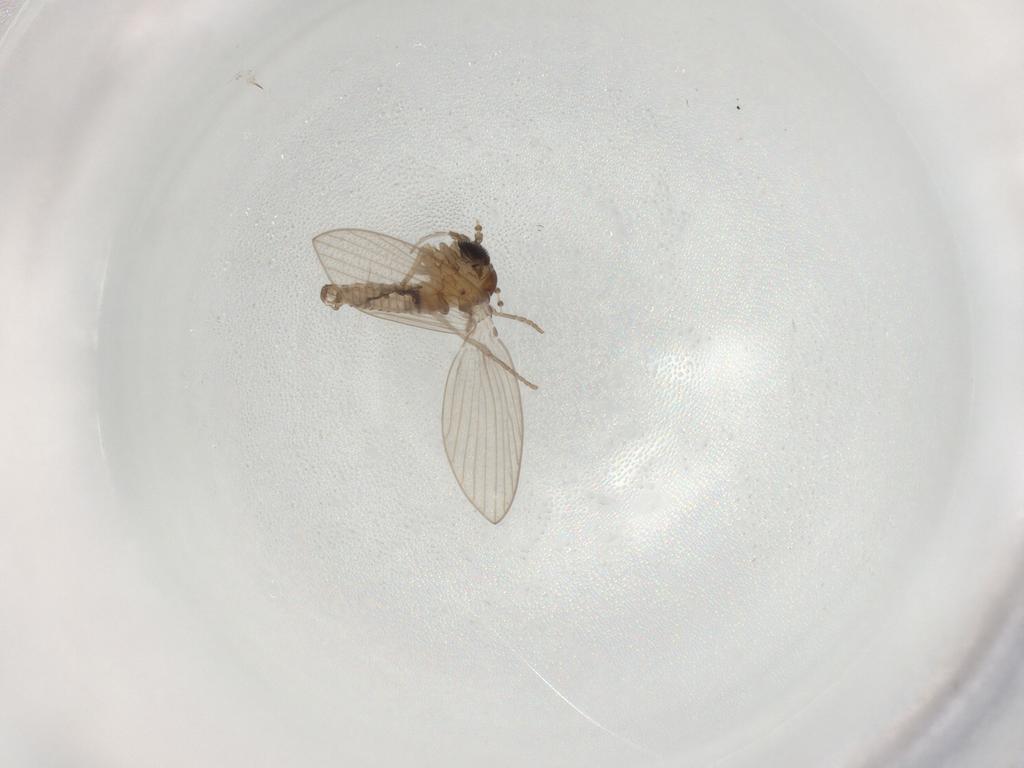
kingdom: Animalia
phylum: Arthropoda
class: Insecta
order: Diptera
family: Psychodidae
